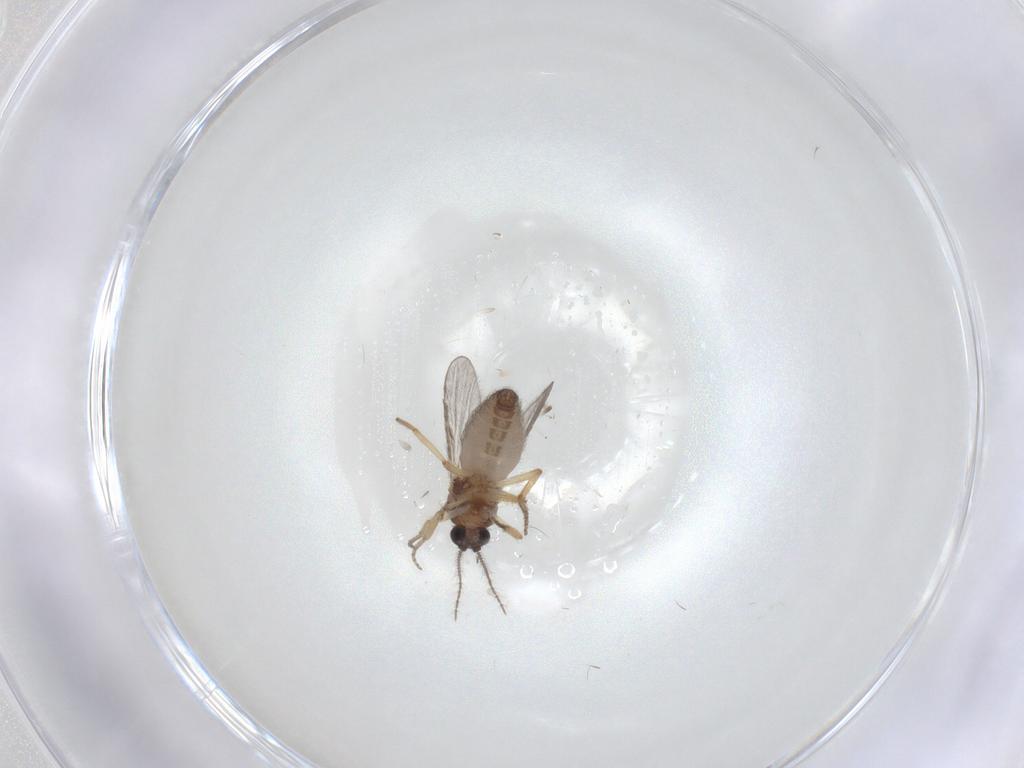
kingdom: Animalia
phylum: Arthropoda
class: Insecta
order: Diptera
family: Ceratopogonidae
